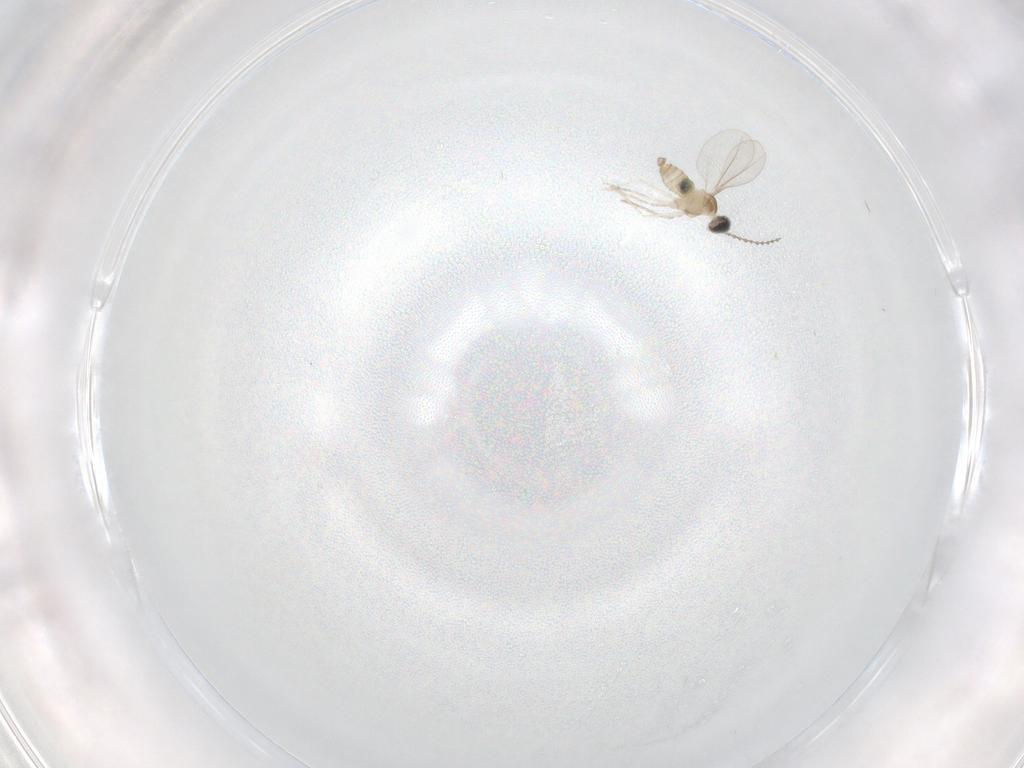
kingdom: Animalia
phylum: Arthropoda
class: Insecta
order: Diptera
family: Cecidomyiidae
